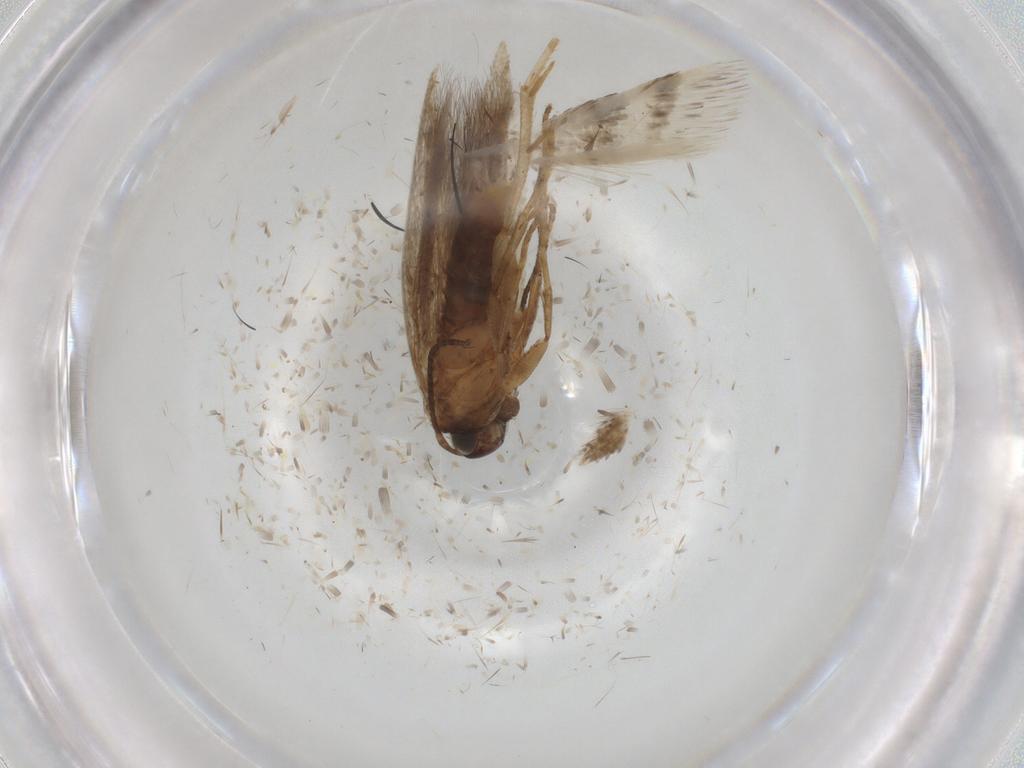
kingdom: Animalia
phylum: Arthropoda
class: Insecta
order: Lepidoptera
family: Gelechiidae
